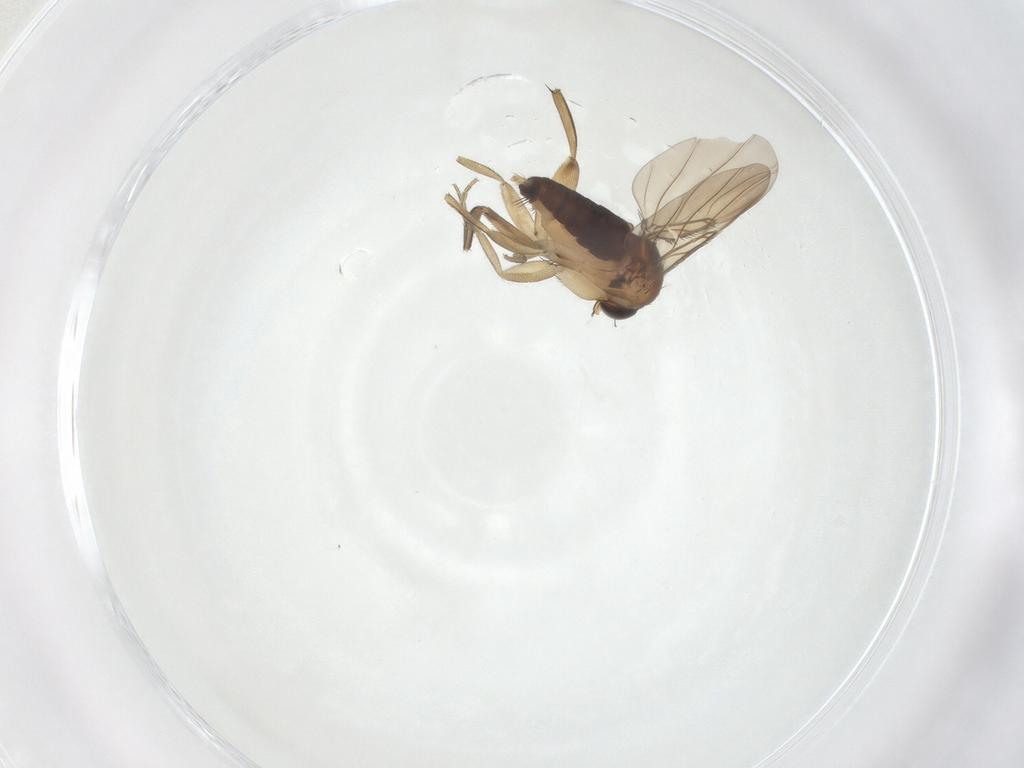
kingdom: Animalia
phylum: Arthropoda
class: Insecta
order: Diptera
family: Phoridae
